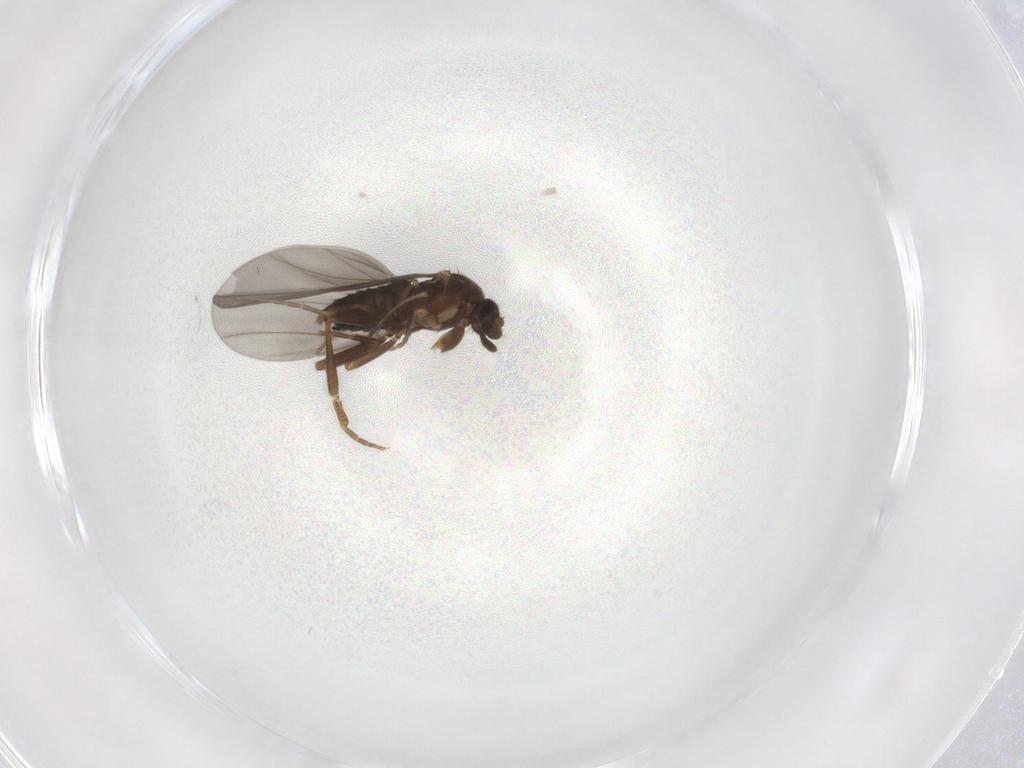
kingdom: Animalia
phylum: Arthropoda
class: Insecta
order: Diptera
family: Phoridae
